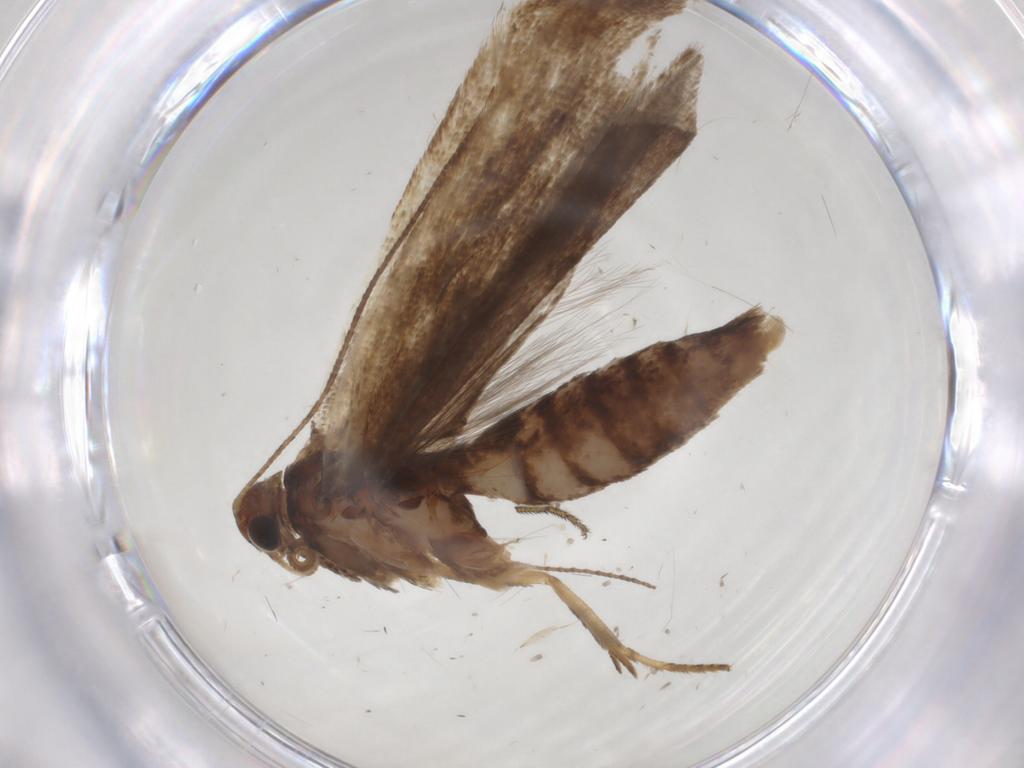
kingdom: Animalia
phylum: Arthropoda
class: Insecta
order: Lepidoptera
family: Gelechiidae
